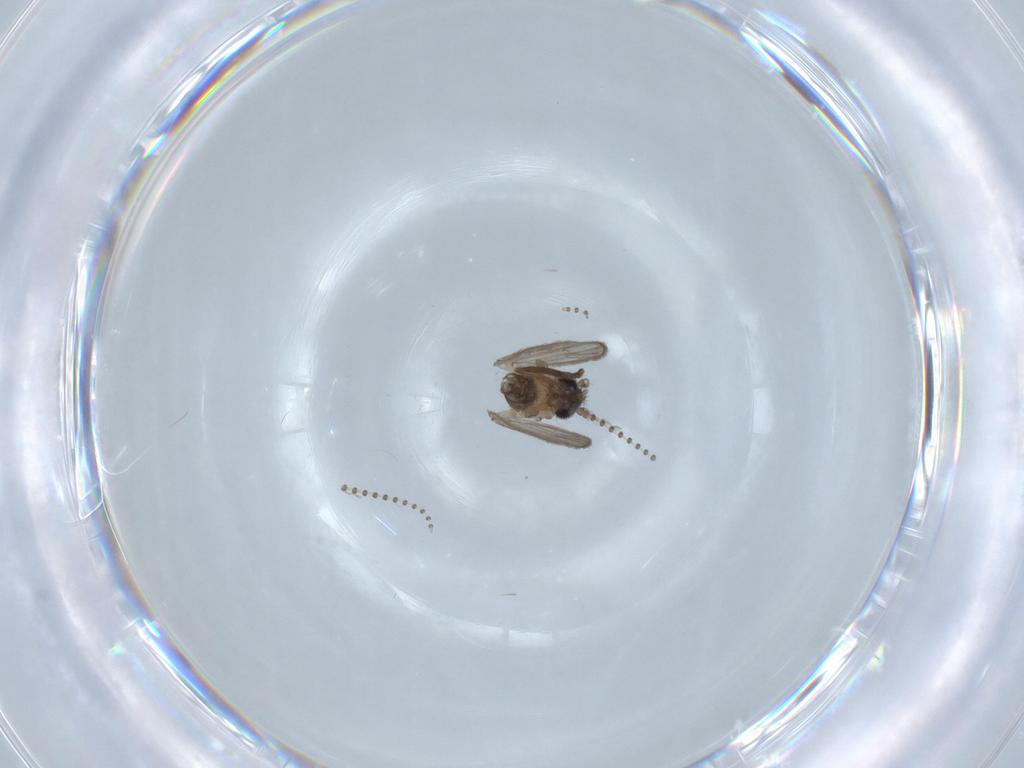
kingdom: Animalia
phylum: Arthropoda
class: Insecta
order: Diptera
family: Psychodidae
